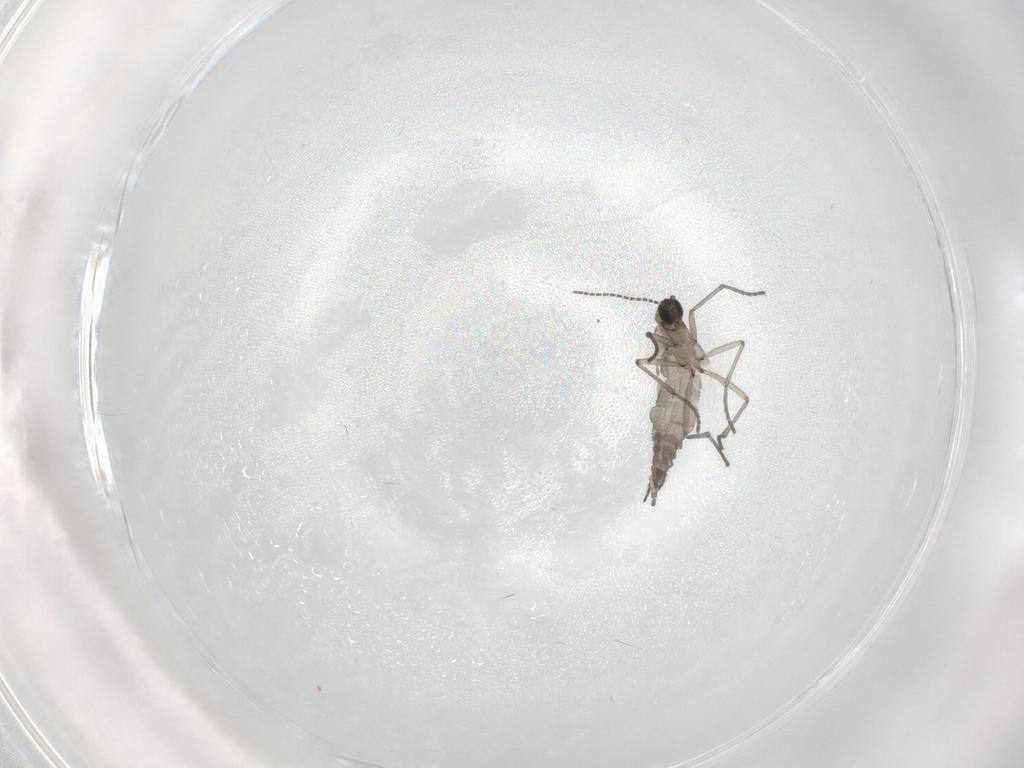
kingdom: Animalia
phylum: Arthropoda
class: Insecta
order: Diptera
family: Sciaridae
